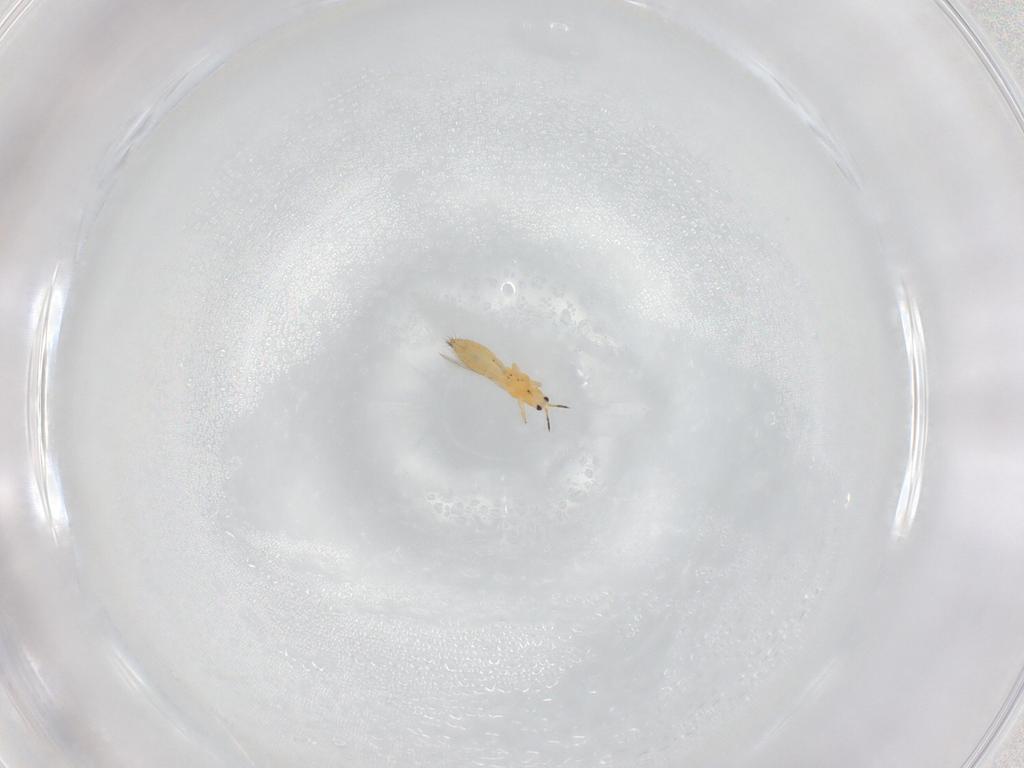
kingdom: Animalia
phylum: Arthropoda
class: Insecta
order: Thysanoptera
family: Thripidae
